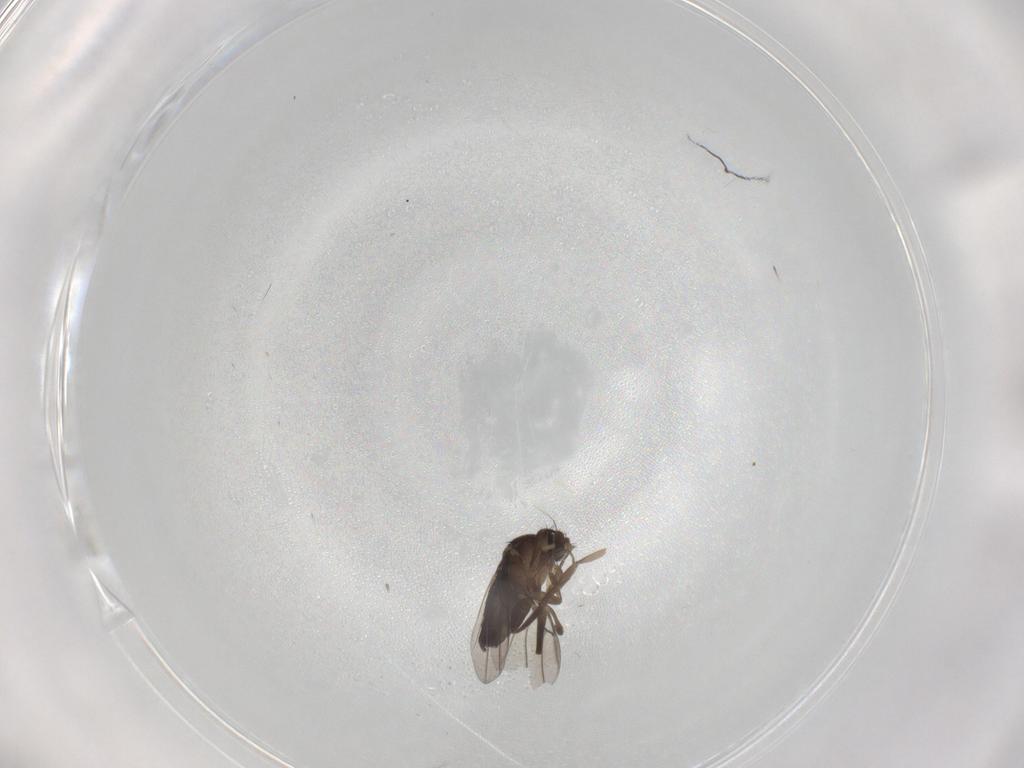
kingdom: Animalia
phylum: Arthropoda
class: Insecta
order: Diptera
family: Phoridae
